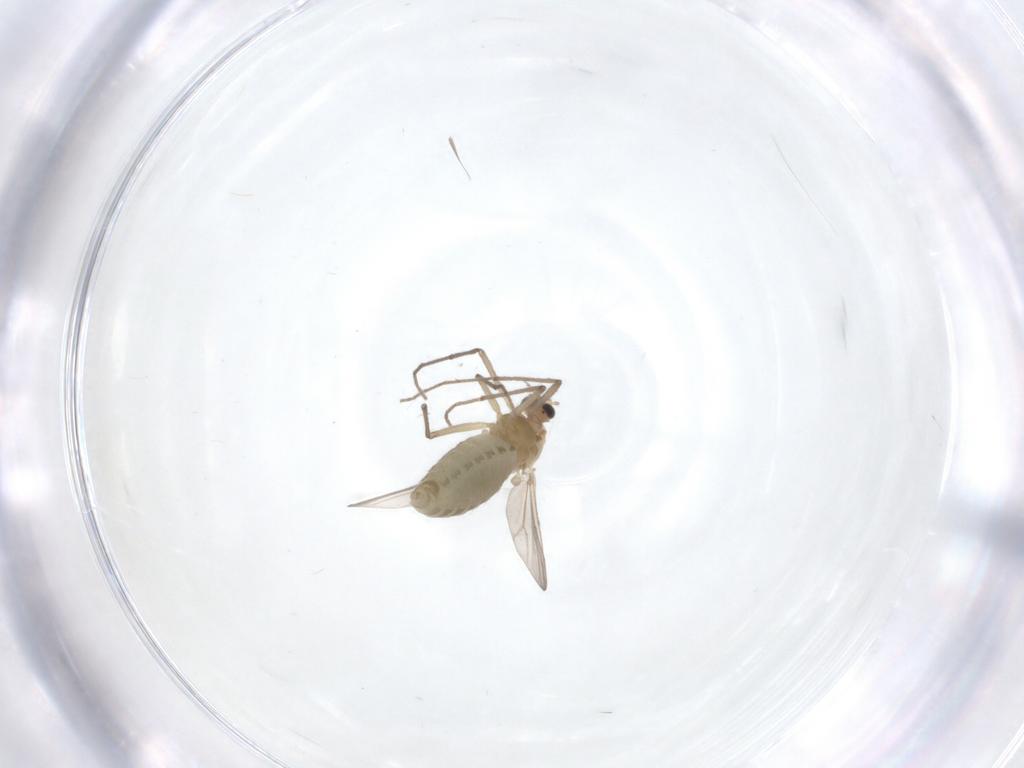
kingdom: Animalia
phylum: Arthropoda
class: Insecta
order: Diptera
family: Chironomidae
